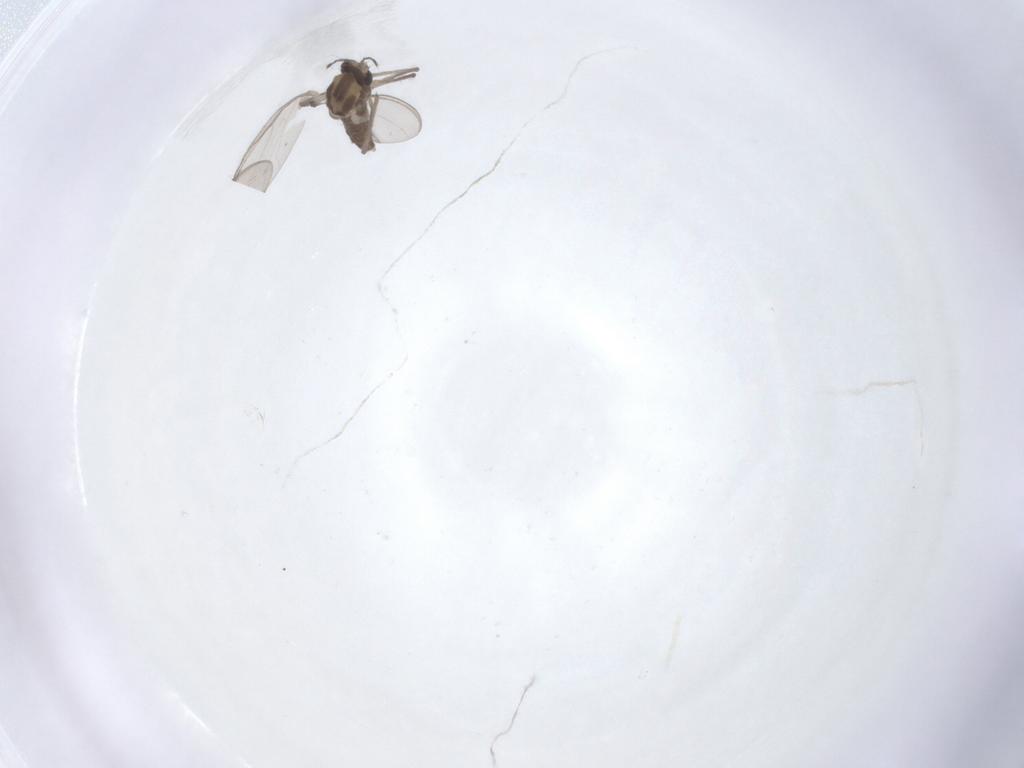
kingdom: Animalia
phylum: Arthropoda
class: Insecta
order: Diptera
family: Chironomidae
